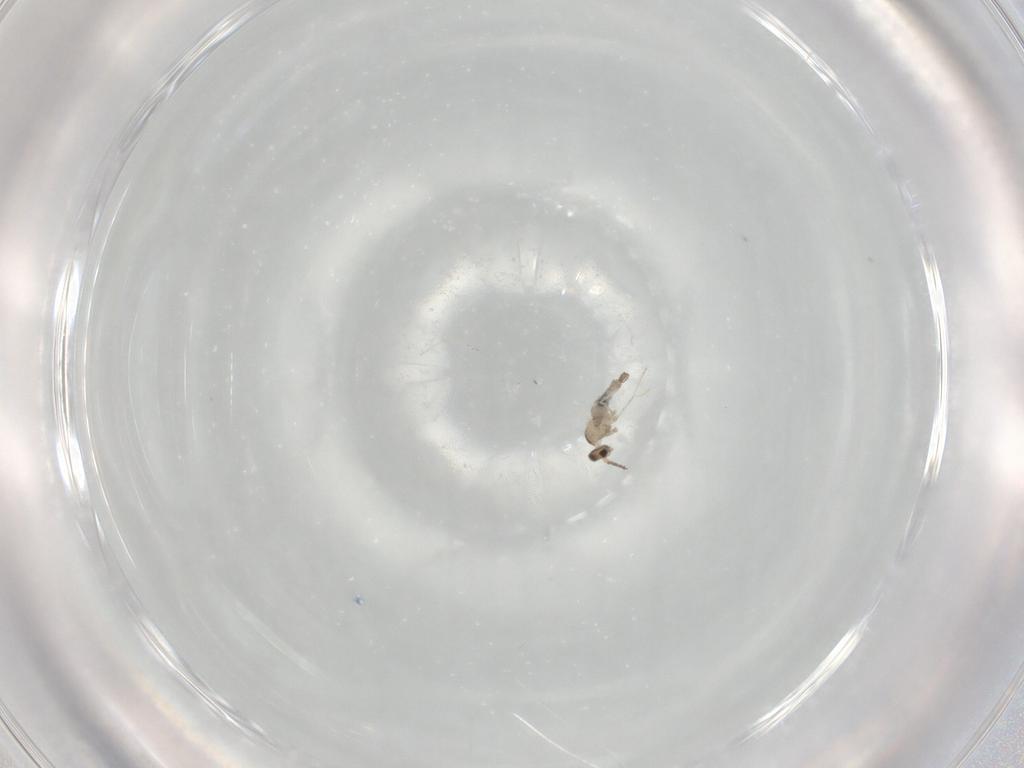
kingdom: Animalia
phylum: Arthropoda
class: Insecta
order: Diptera
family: Cecidomyiidae
